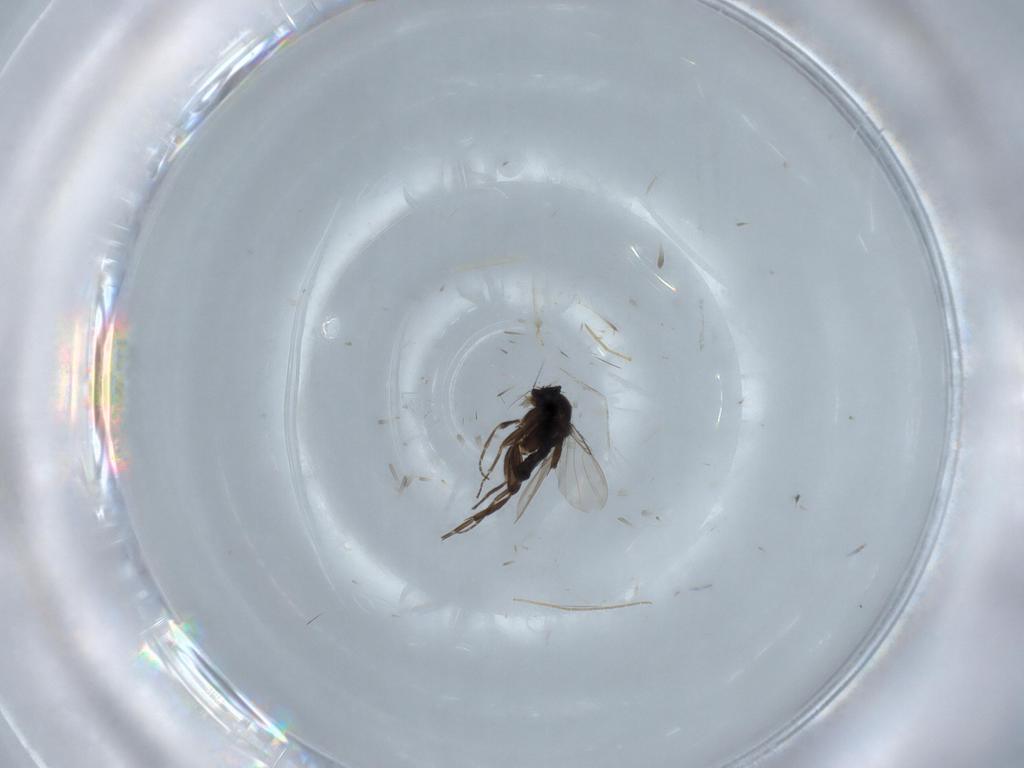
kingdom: Animalia
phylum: Arthropoda
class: Insecta
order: Diptera
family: Phoridae
